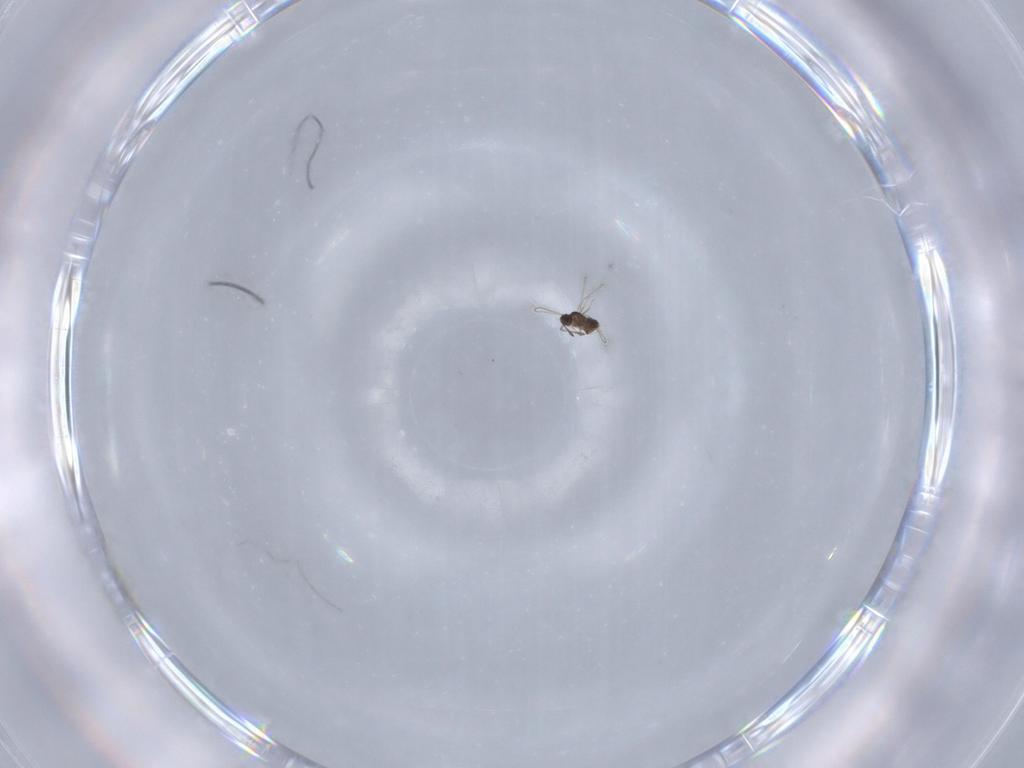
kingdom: Animalia
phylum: Arthropoda
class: Insecta
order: Hymenoptera
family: Mymaridae
